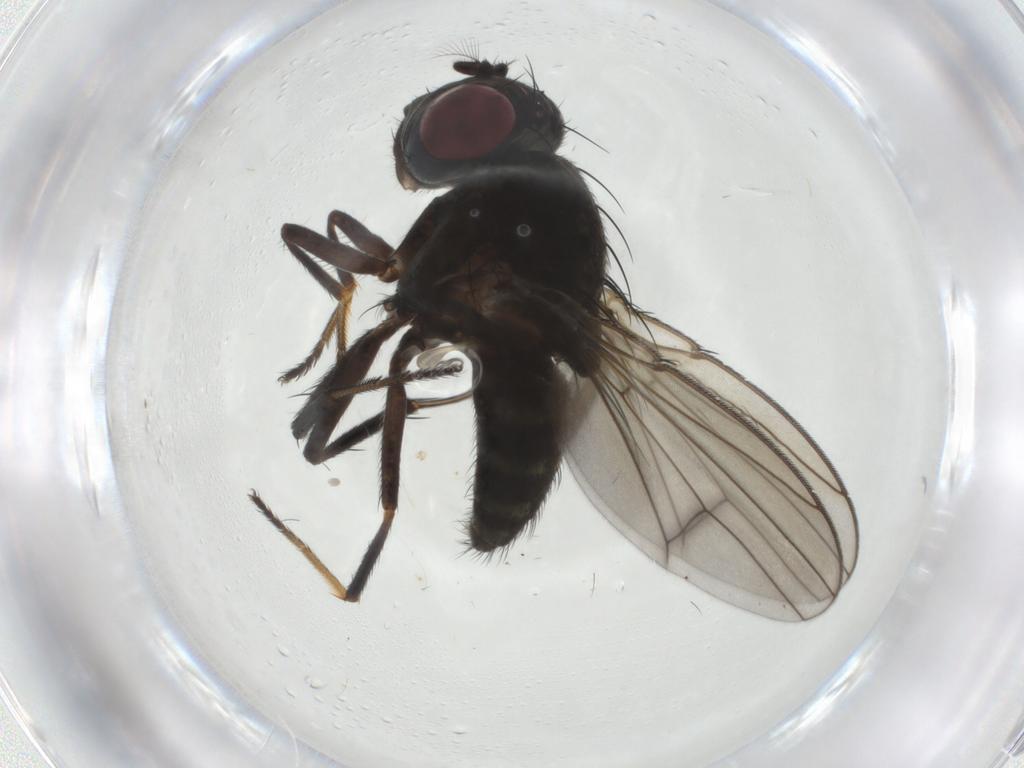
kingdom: Animalia
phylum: Arthropoda
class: Insecta
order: Diptera
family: Ephydridae
